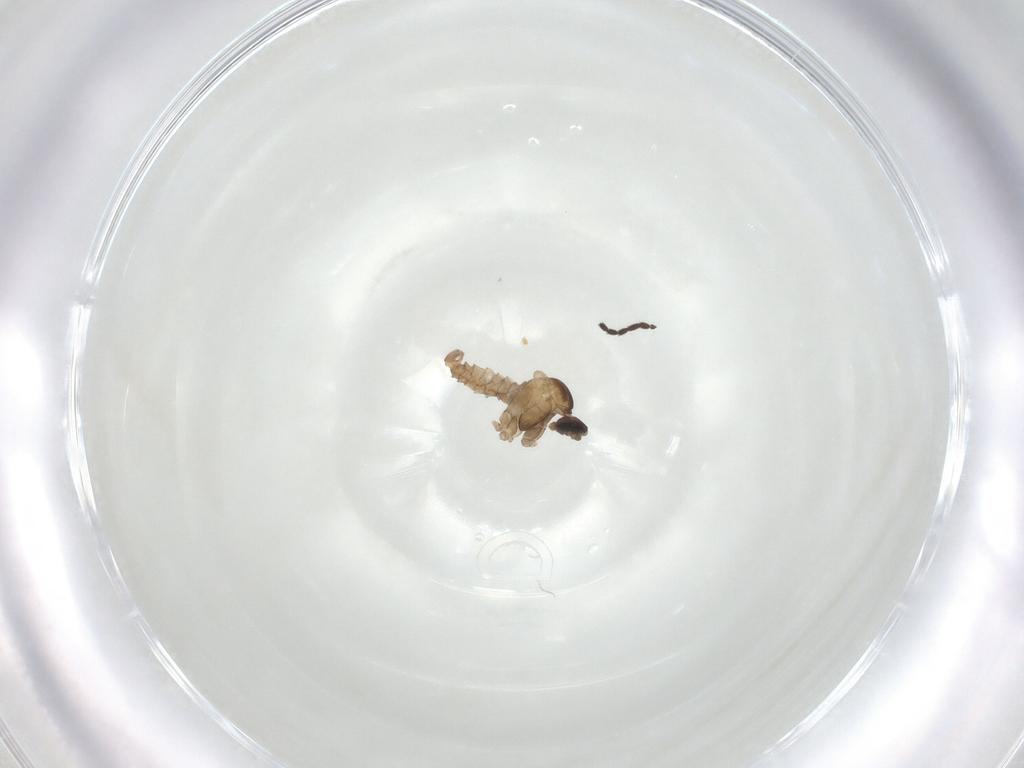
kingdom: Animalia
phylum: Arthropoda
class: Insecta
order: Diptera
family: Cecidomyiidae
